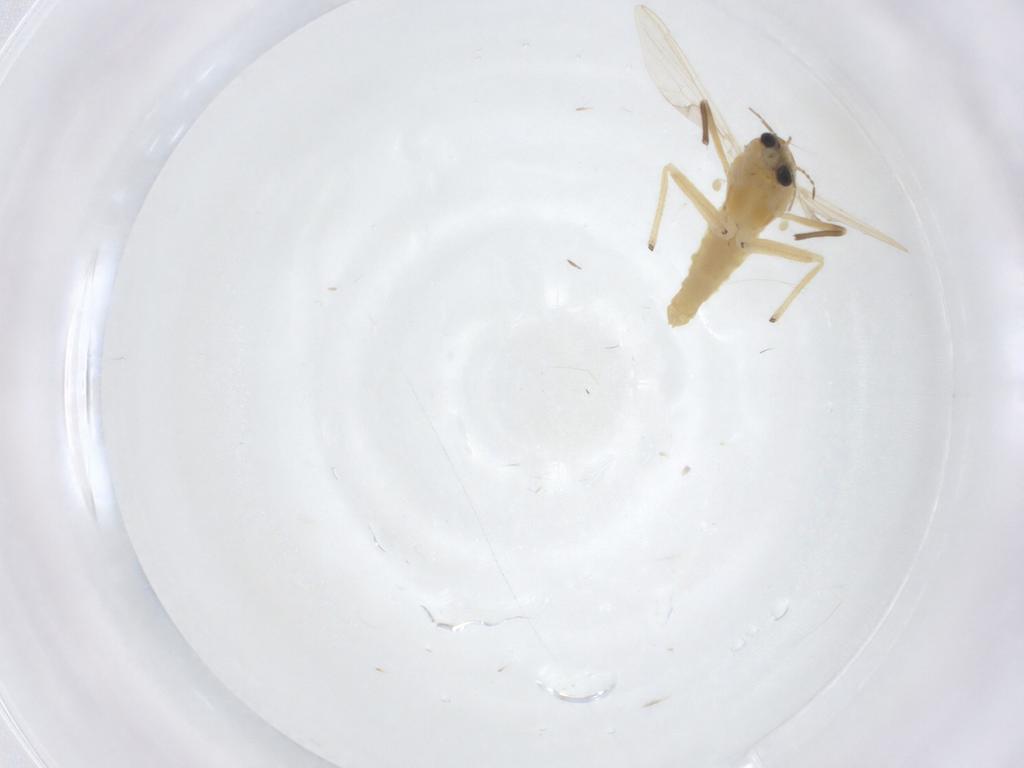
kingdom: Animalia
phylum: Arthropoda
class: Insecta
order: Diptera
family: Chironomidae
